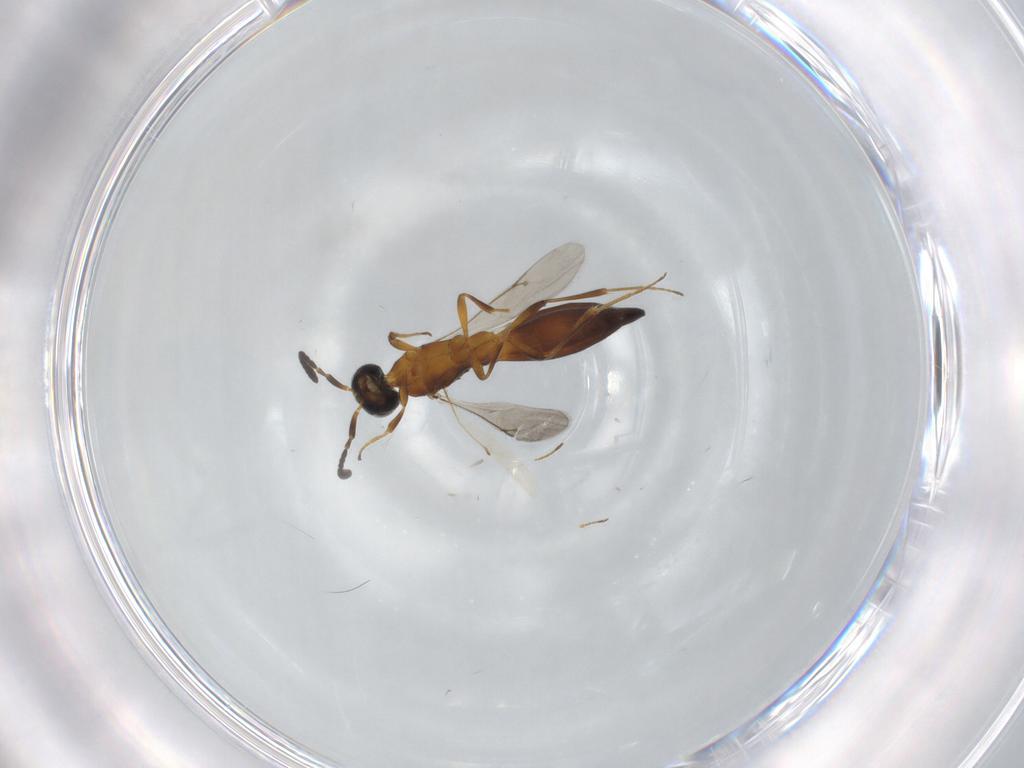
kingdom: Animalia
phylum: Arthropoda
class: Insecta
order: Hymenoptera
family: Scelionidae
